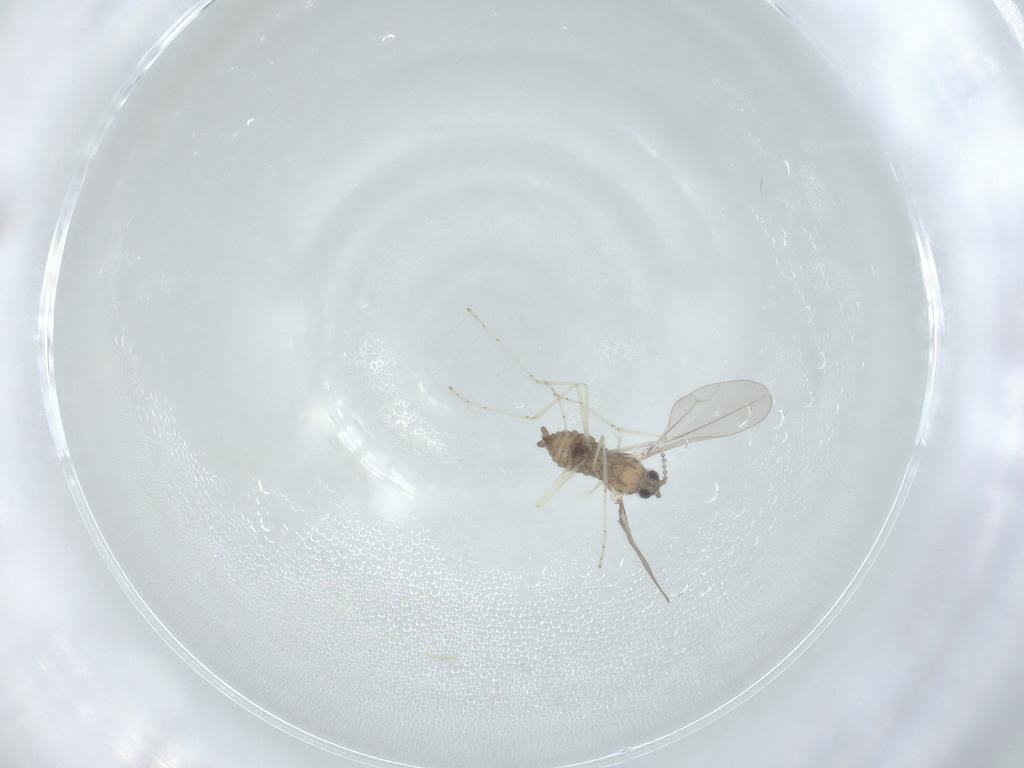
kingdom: Animalia
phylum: Arthropoda
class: Insecta
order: Diptera
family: Cecidomyiidae
